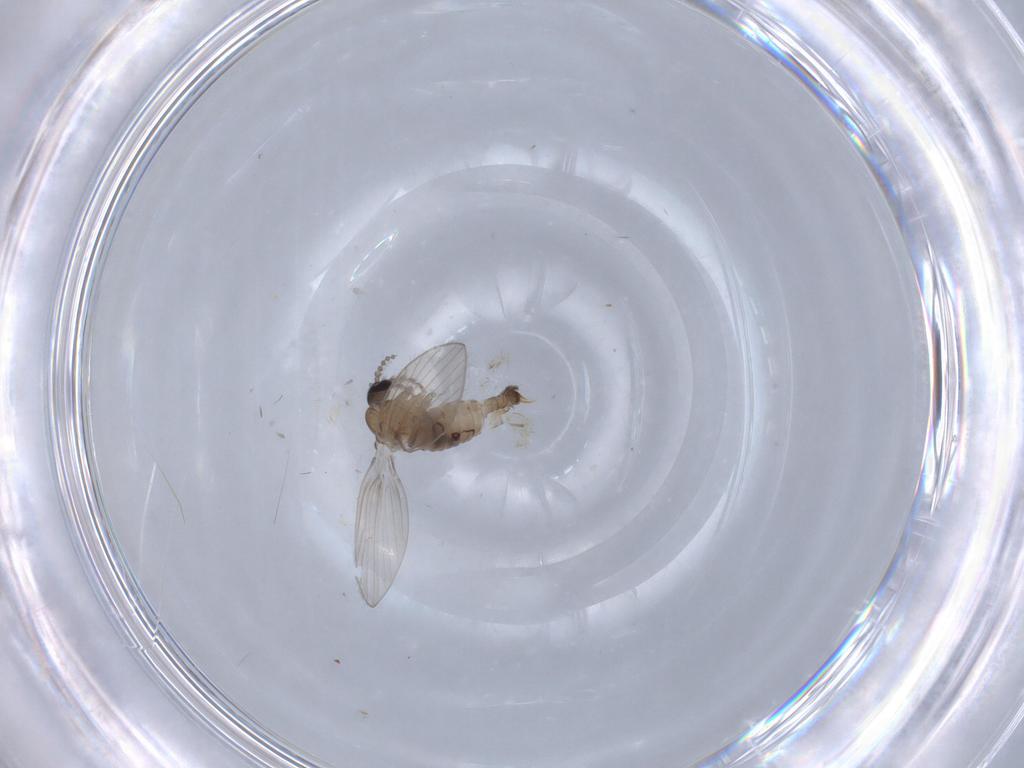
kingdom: Animalia
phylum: Arthropoda
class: Insecta
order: Diptera
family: Psychodidae
